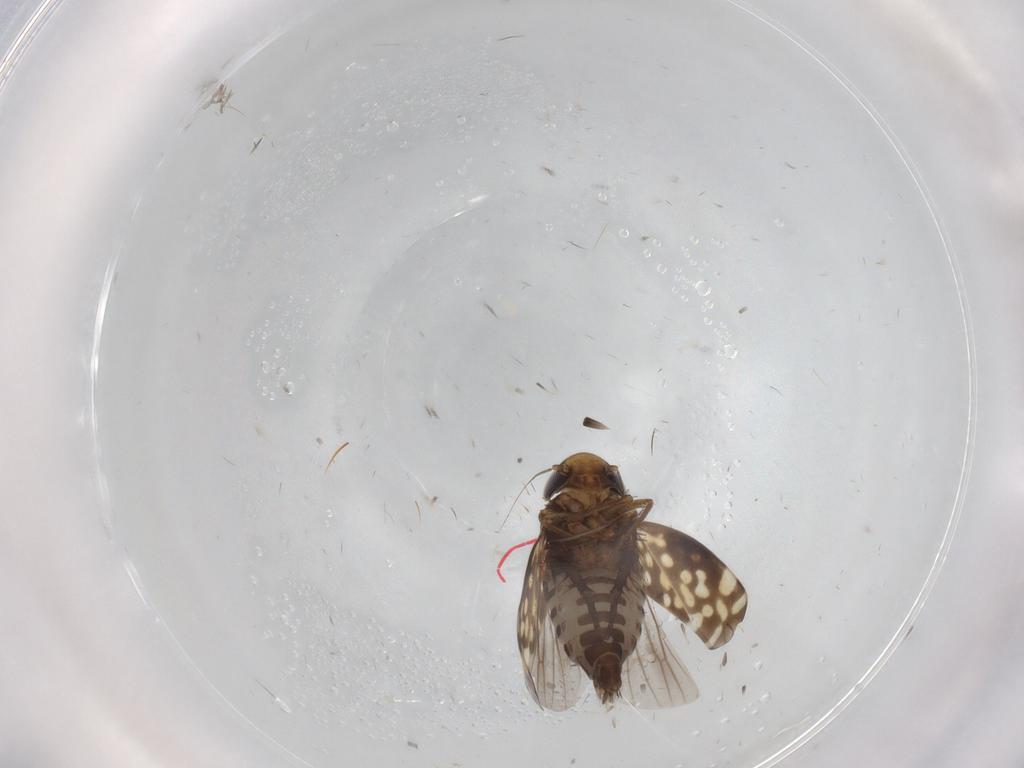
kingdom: Animalia
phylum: Arthropoda
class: Insecta
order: Hemiptera
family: Cicadellidae
